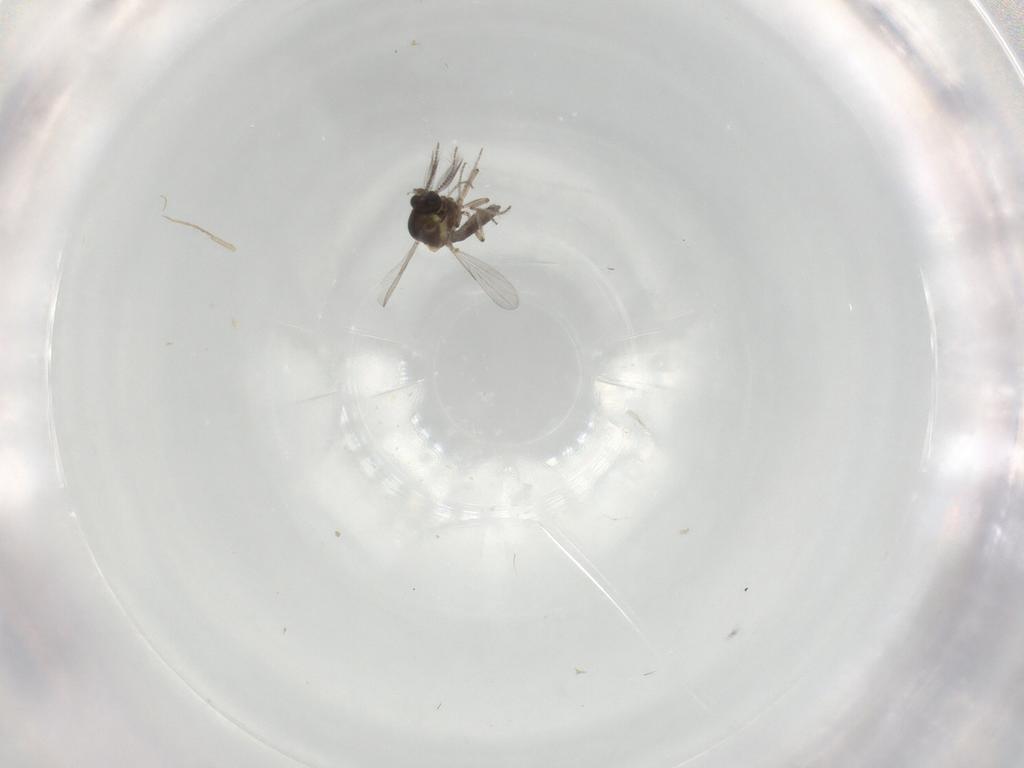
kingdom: Animalia
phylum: Arthropoda
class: Insecta
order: Diptera
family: Ceratopogonidae
